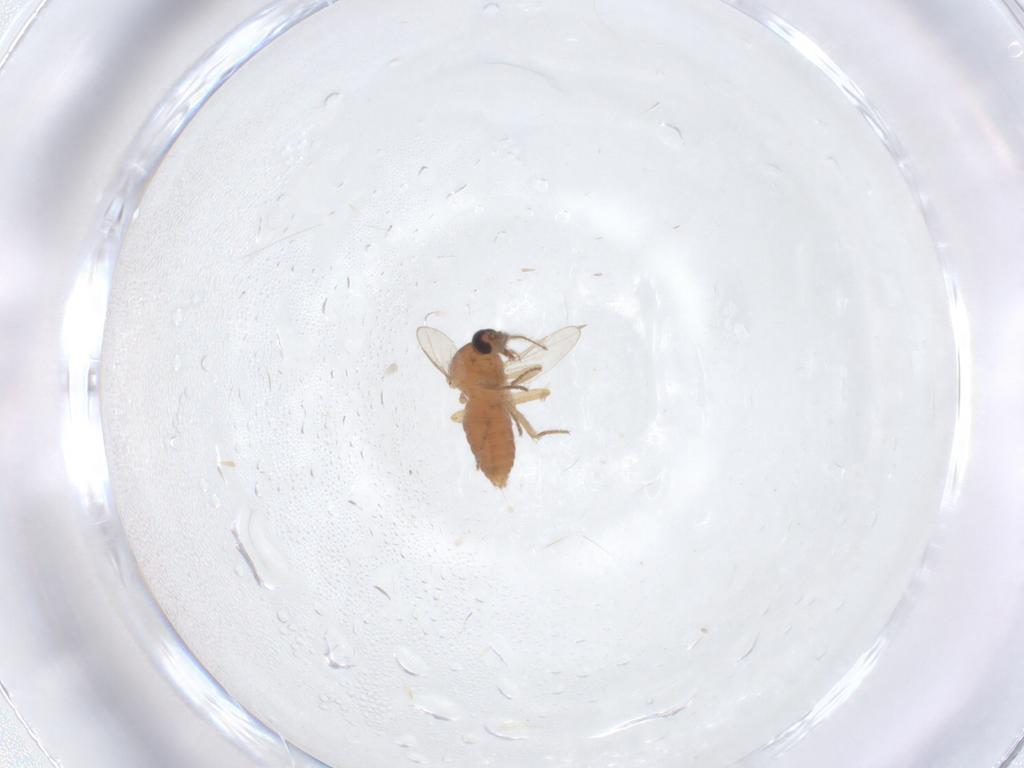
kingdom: Animalia
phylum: Arthropoda
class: Insecta
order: Diptera
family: Ceratopogonidae
